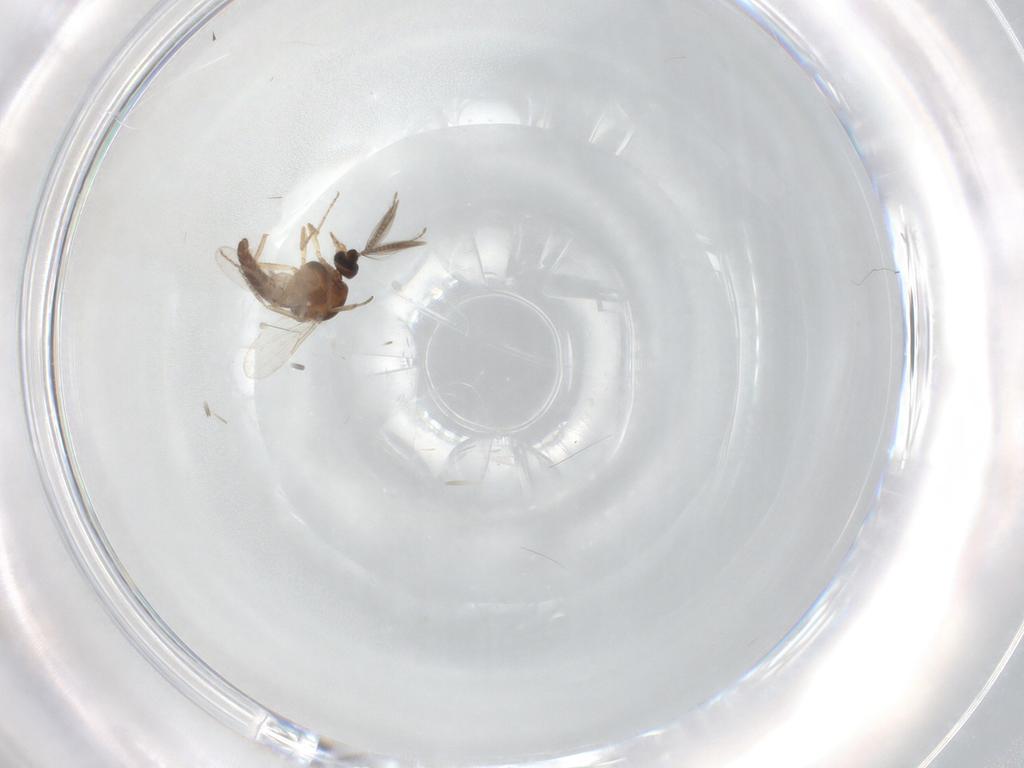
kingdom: Animalia
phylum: Arthropoda
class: Insecta
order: Diptera
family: Ceratopogonidae
